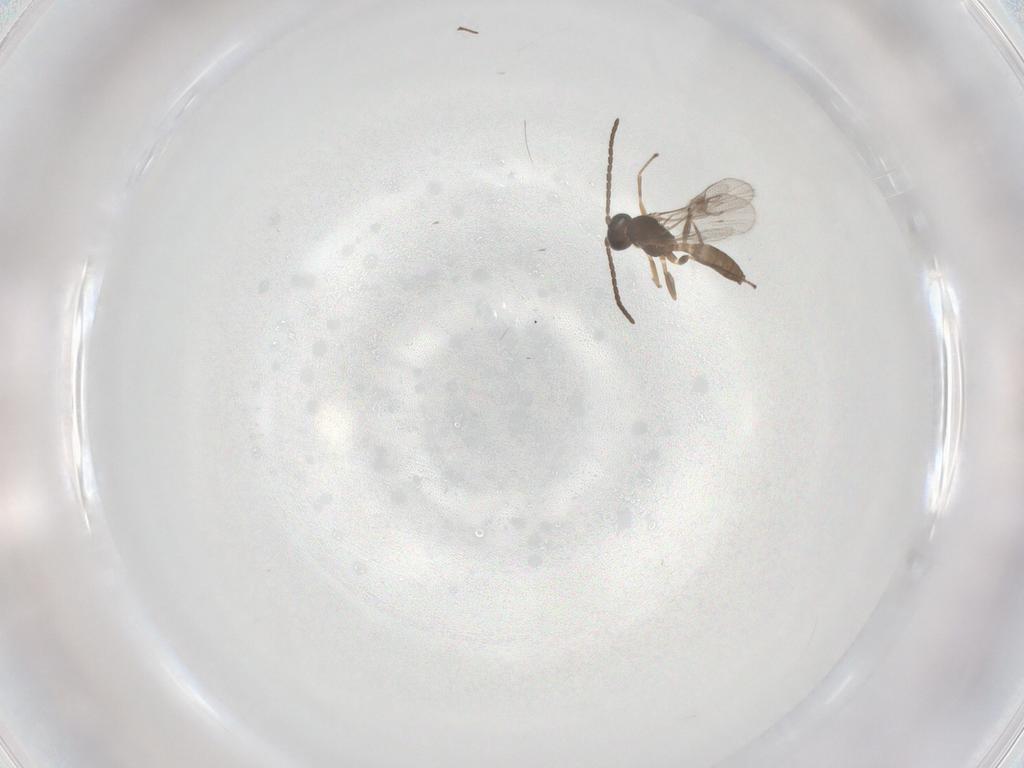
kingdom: Animalia
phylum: Arthropoda
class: Insecta
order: Hymenoptera
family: Braconidae
